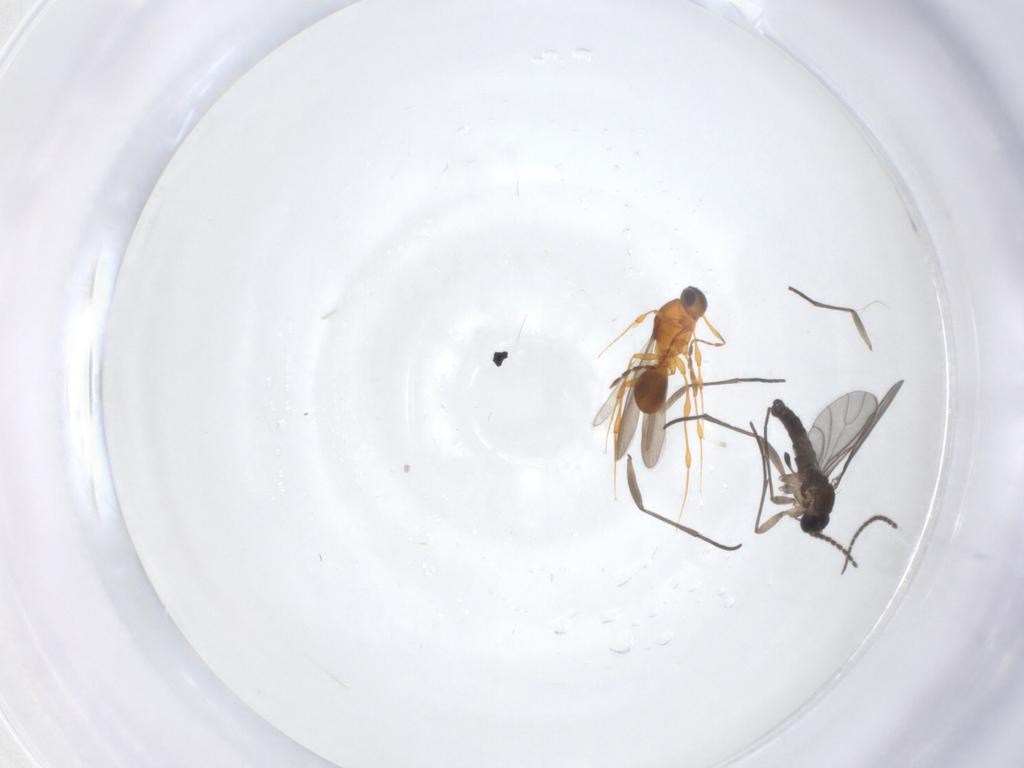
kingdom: Animalia
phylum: Arthropoda
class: Insecta
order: Diptera
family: Sciaridae
